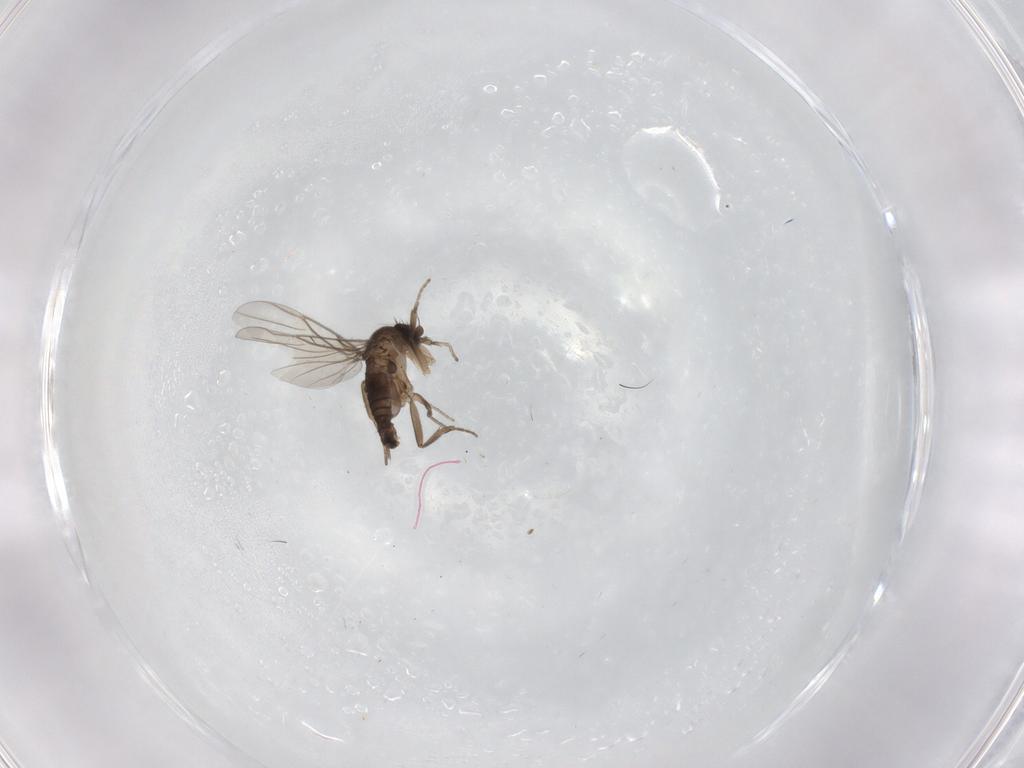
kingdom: Animalia
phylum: Arthropoda
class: Insecta
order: Diptera
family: Phoridae
